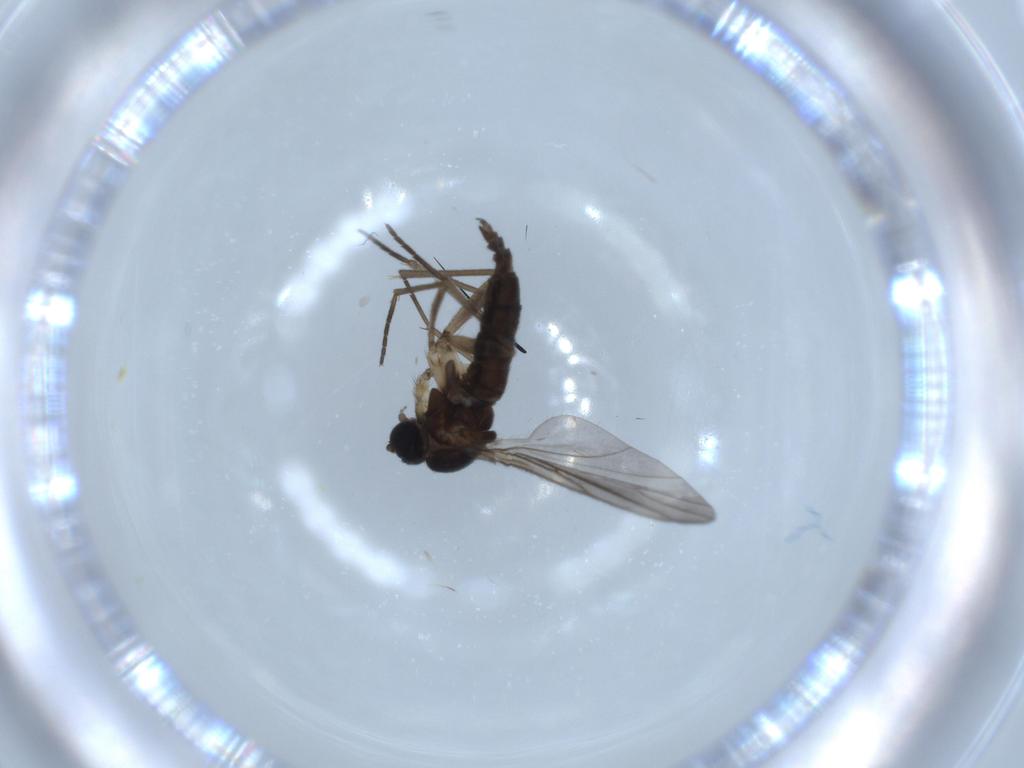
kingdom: Animalia
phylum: Arthropoda
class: Insecta
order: Diptera
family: Sciaridae
